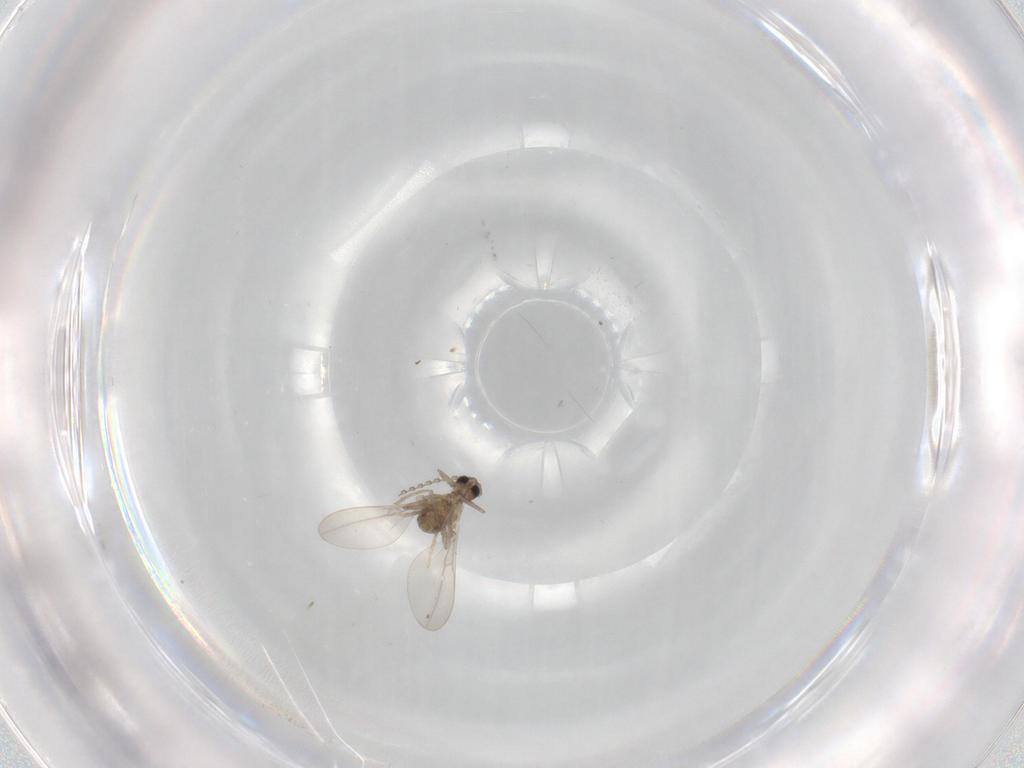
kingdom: Animalia
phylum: Arthropoda
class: Insecta
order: Diptera
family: Cecidomyiidae
